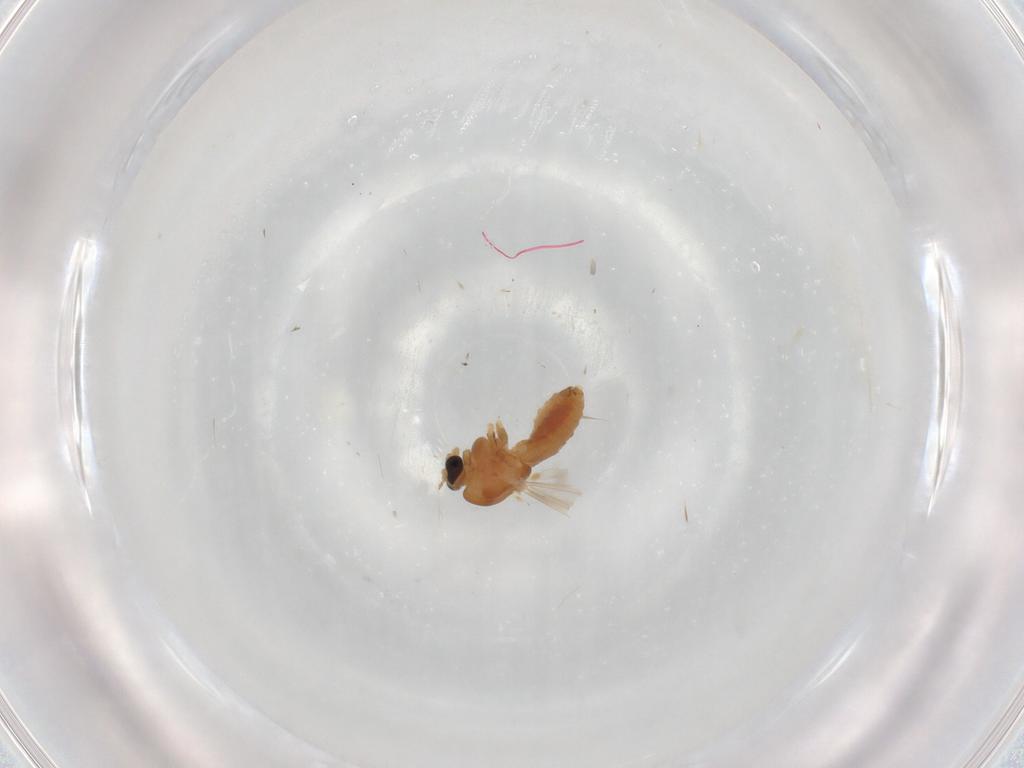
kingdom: Animalia
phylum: Arthropoda
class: Insecta
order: Diptera
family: Chironomidae
